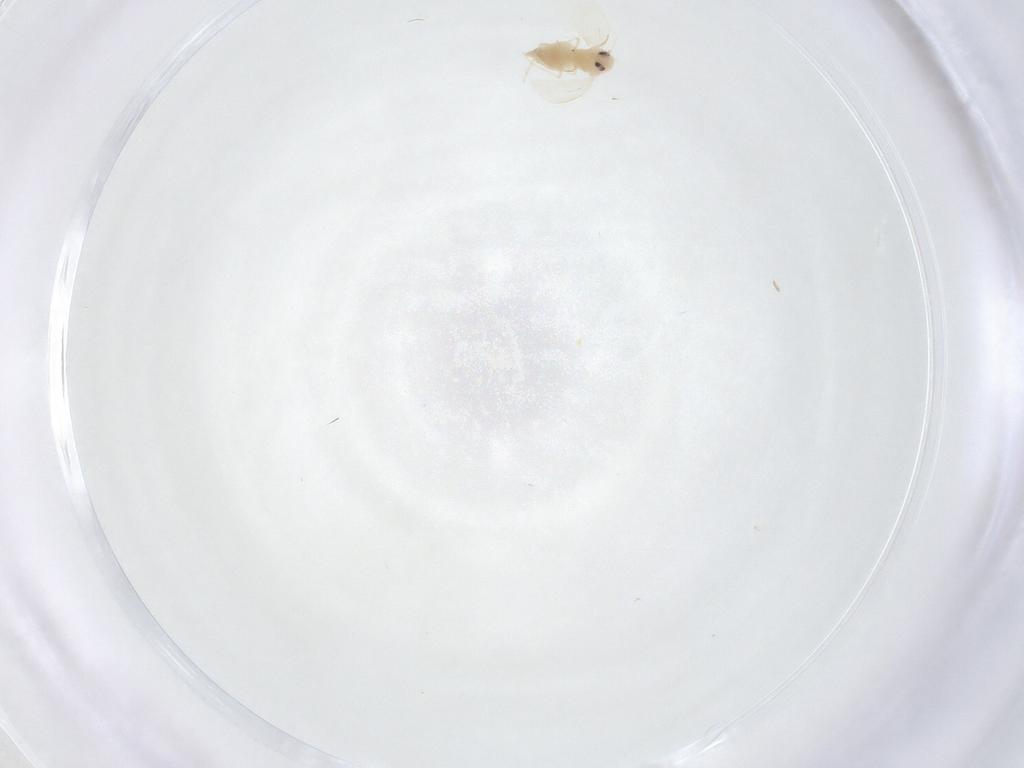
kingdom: Animalia
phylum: Arthropoda
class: Insecta
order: Hemiptera
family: Aleyrodidae
